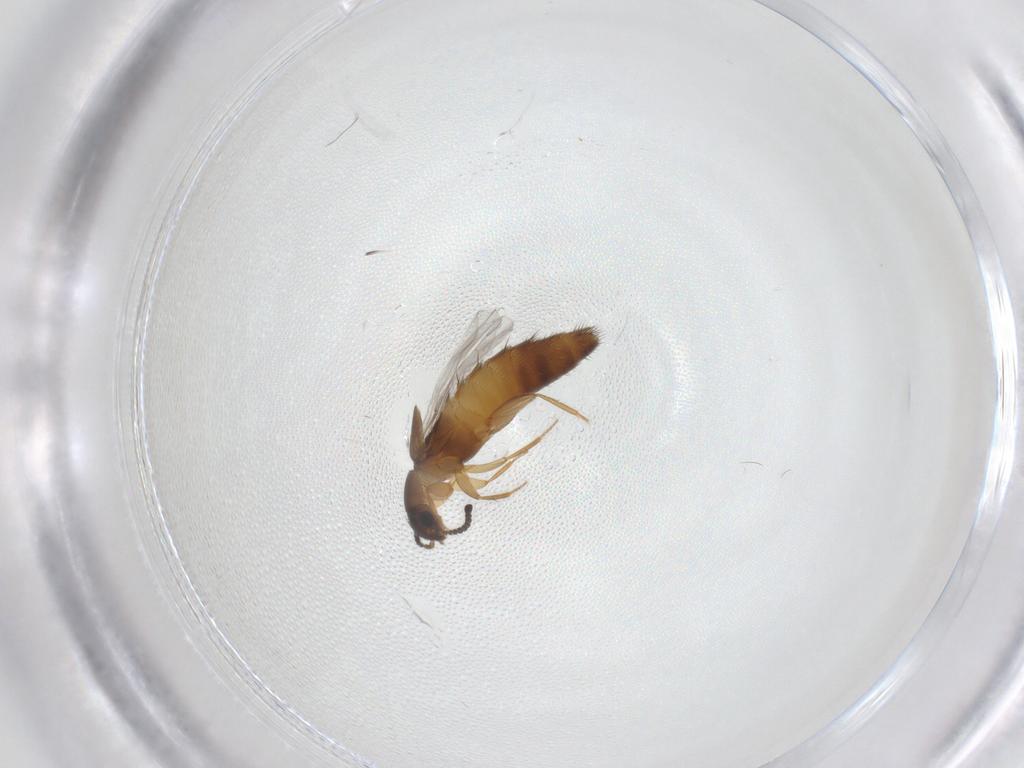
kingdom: Animalia
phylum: Arthropoda
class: Insecta
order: Coleoptera
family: Staphylinidae
